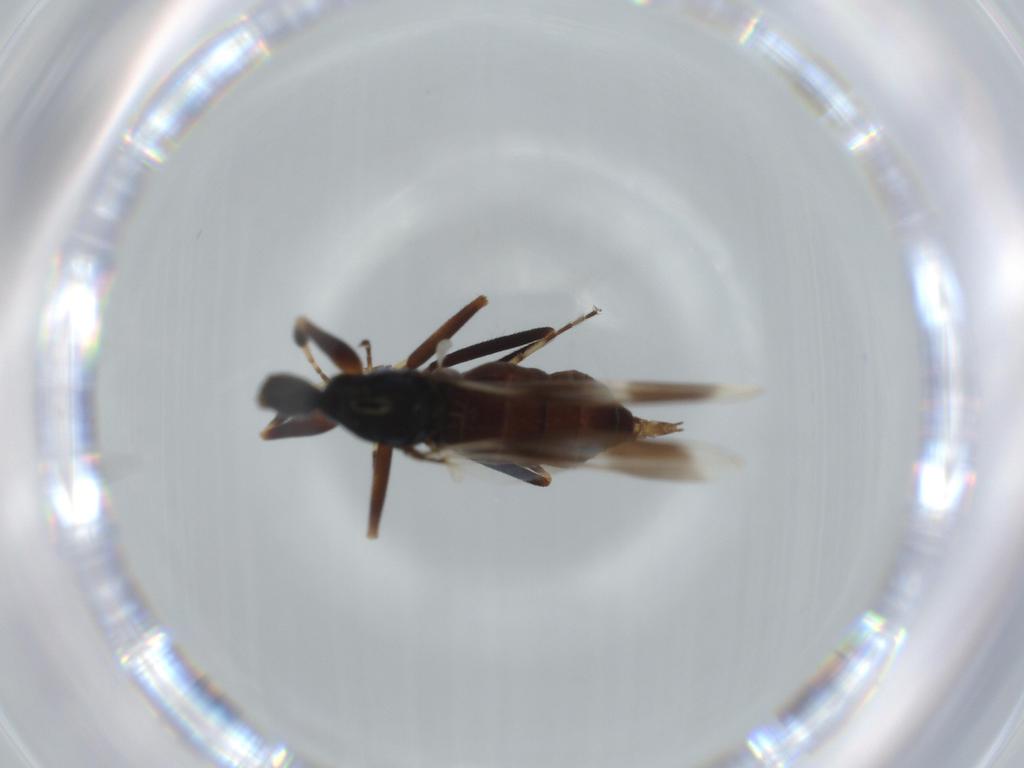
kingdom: Animalia
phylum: Arthropoda
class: Insecta
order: Diptera
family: Hybotidae
